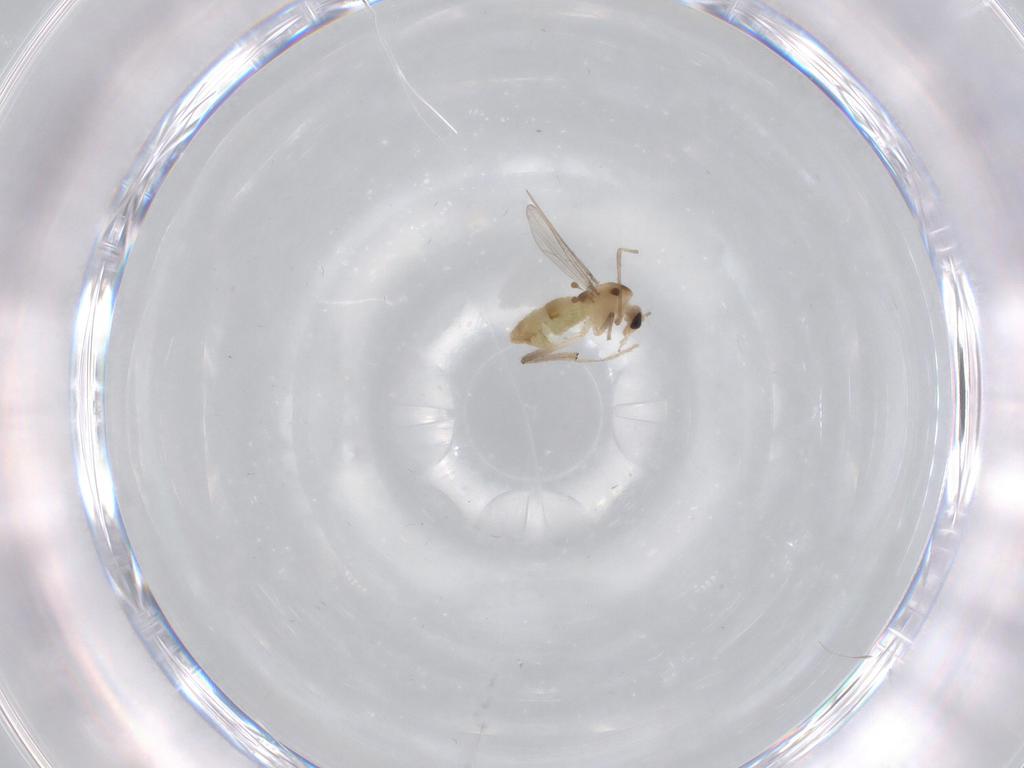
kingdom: Animalia
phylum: Arthropoda
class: Insecta
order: Diptera
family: Chironomidae
